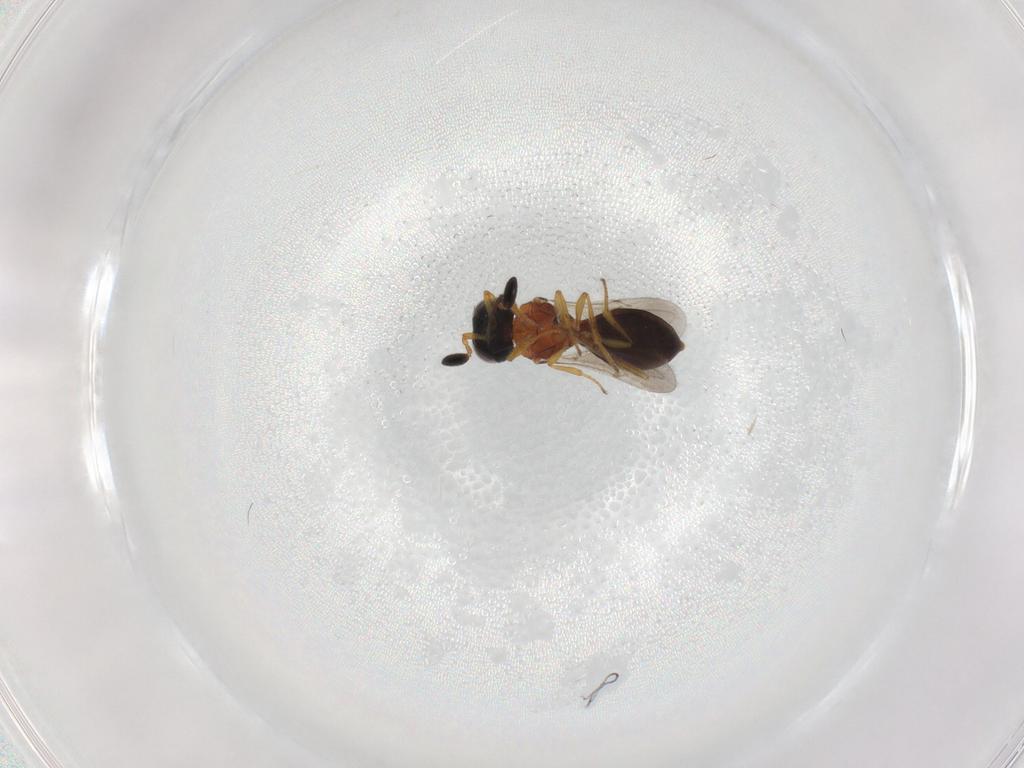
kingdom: Animalia
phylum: Arthropoda
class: Insecta
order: Hymenoptera
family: Scelionidae
